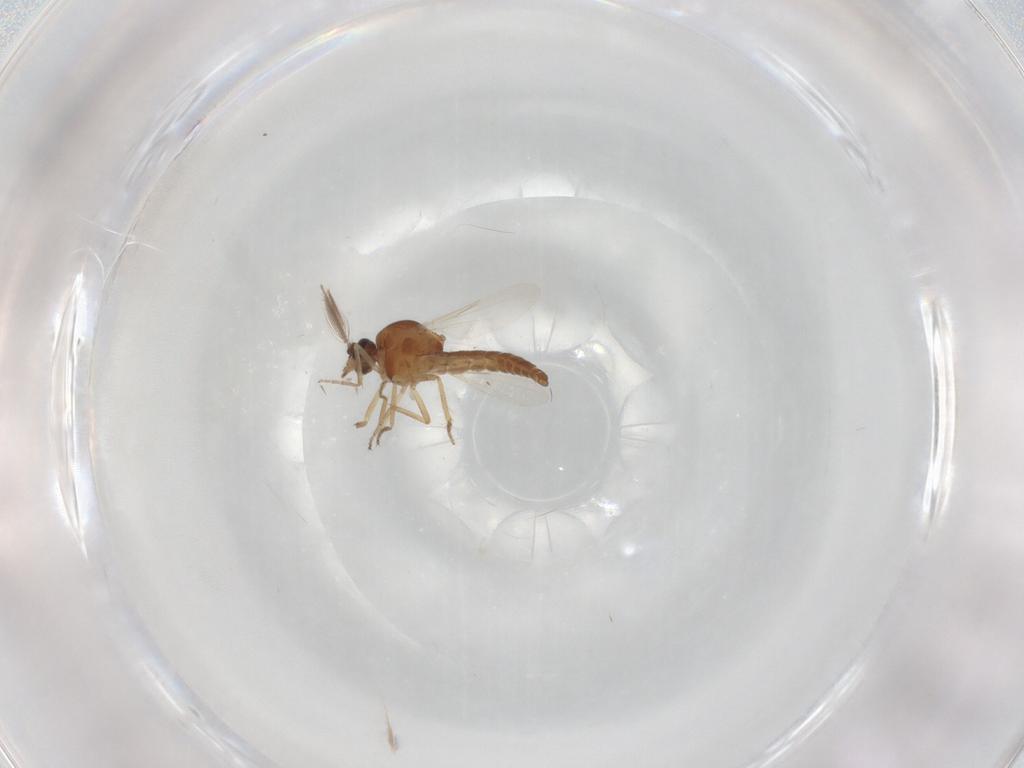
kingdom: Animalia
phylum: Arthropoda
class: Insecta
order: Diptera
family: Ceratopogonidae
